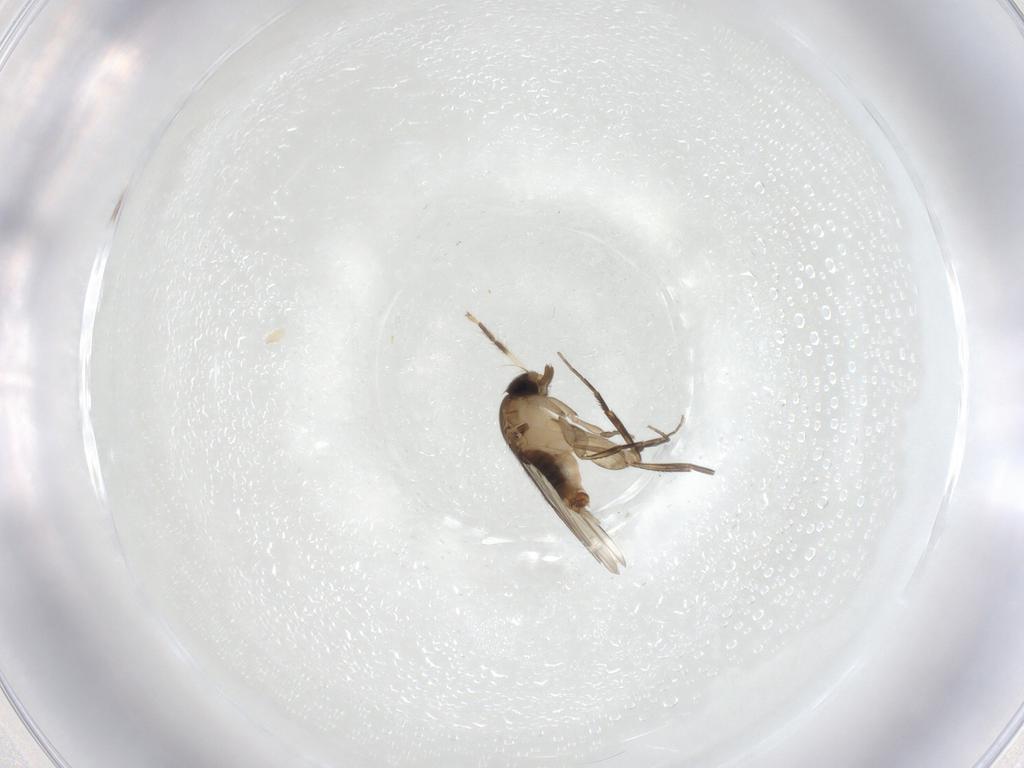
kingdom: Animalia
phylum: Arthropoda
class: Insecta
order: Diptera
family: Phoridae
